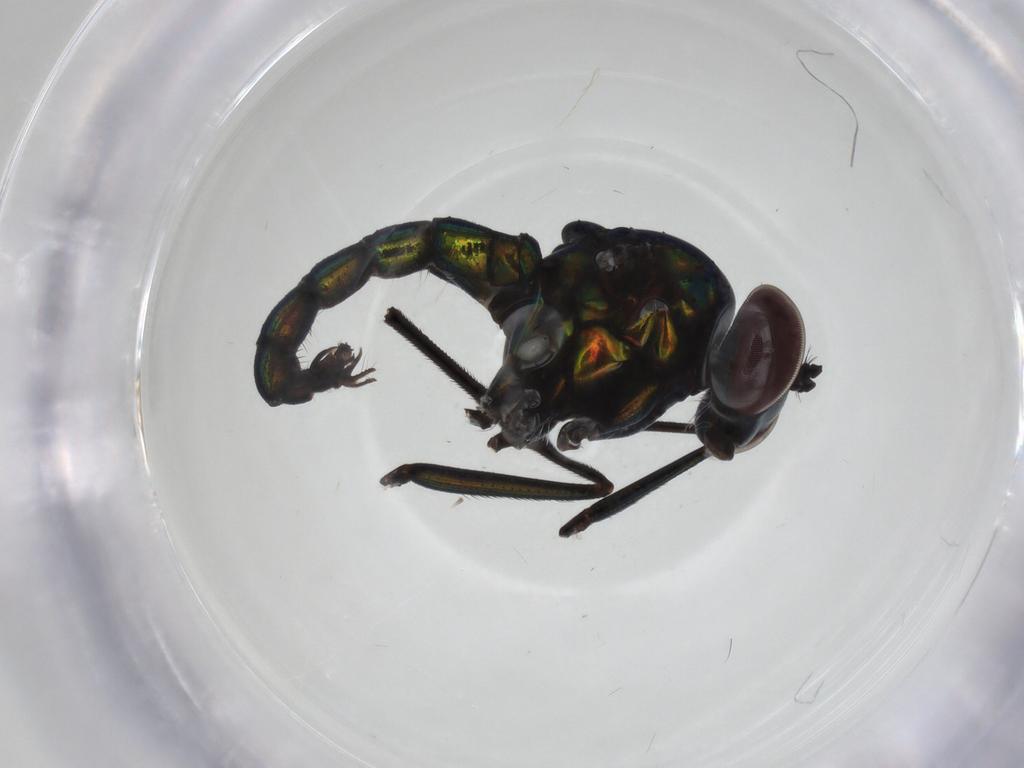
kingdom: Animalia
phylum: Arthropoda
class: Insecta
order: Diptera
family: Dolichopodidae
